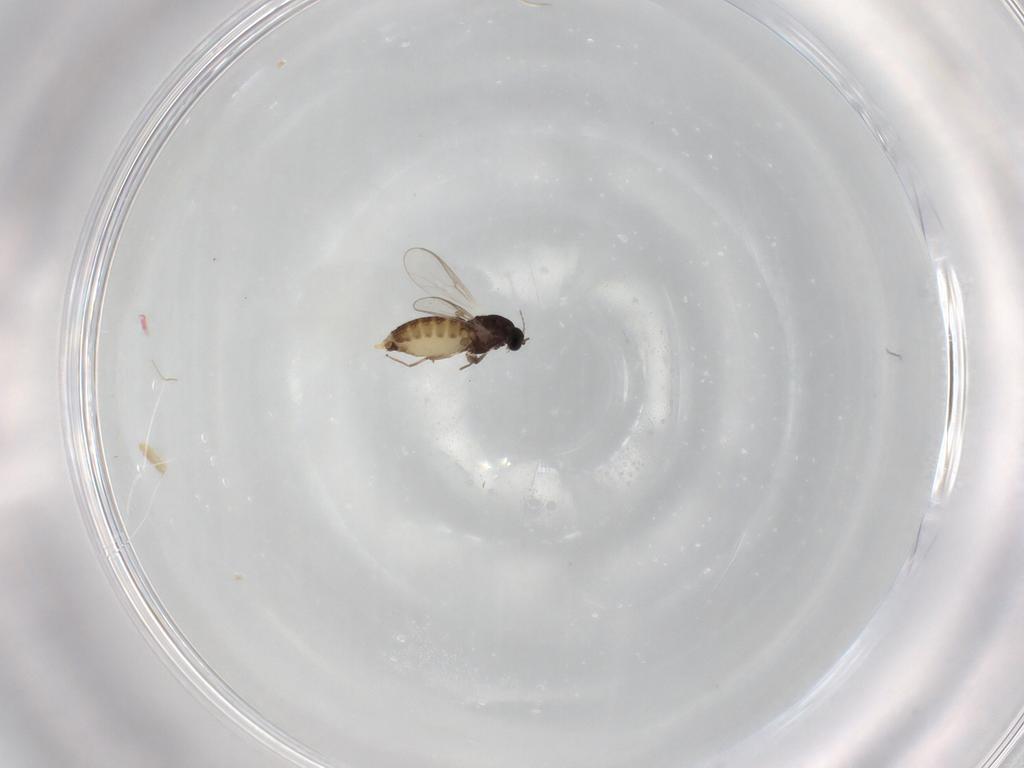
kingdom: Animalia
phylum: Arthropoda
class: Insecta
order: Diptera
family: Chironomidae
